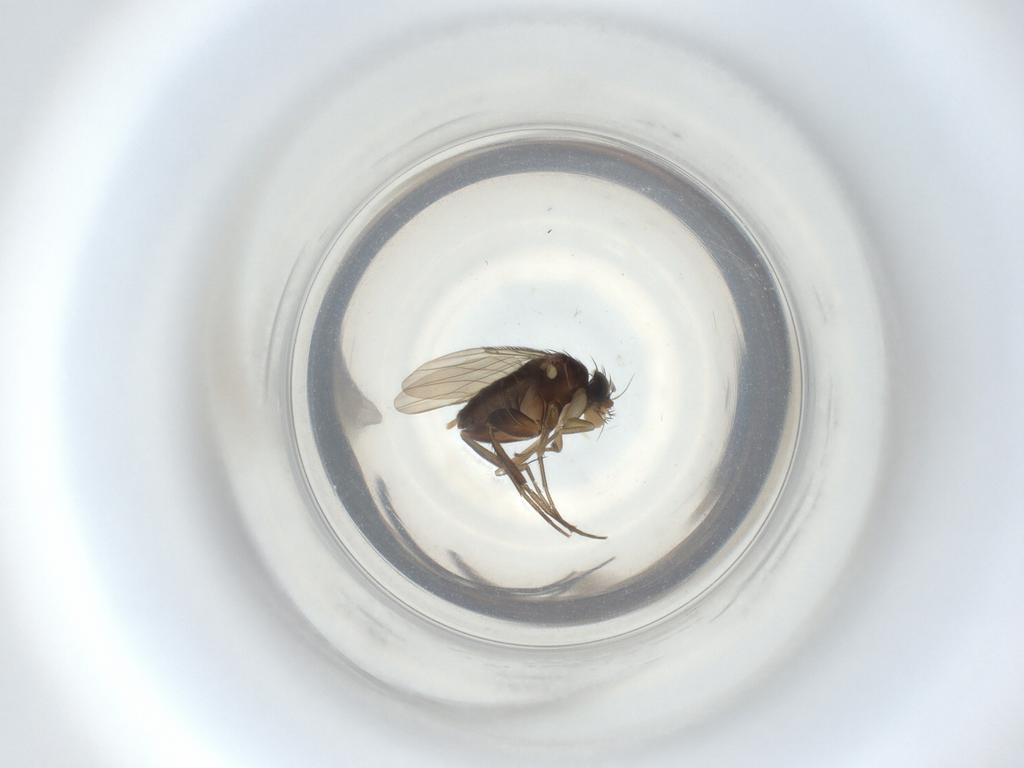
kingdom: Animalia
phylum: Arthropoda
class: Insecta
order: Diptera
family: Phoridae
